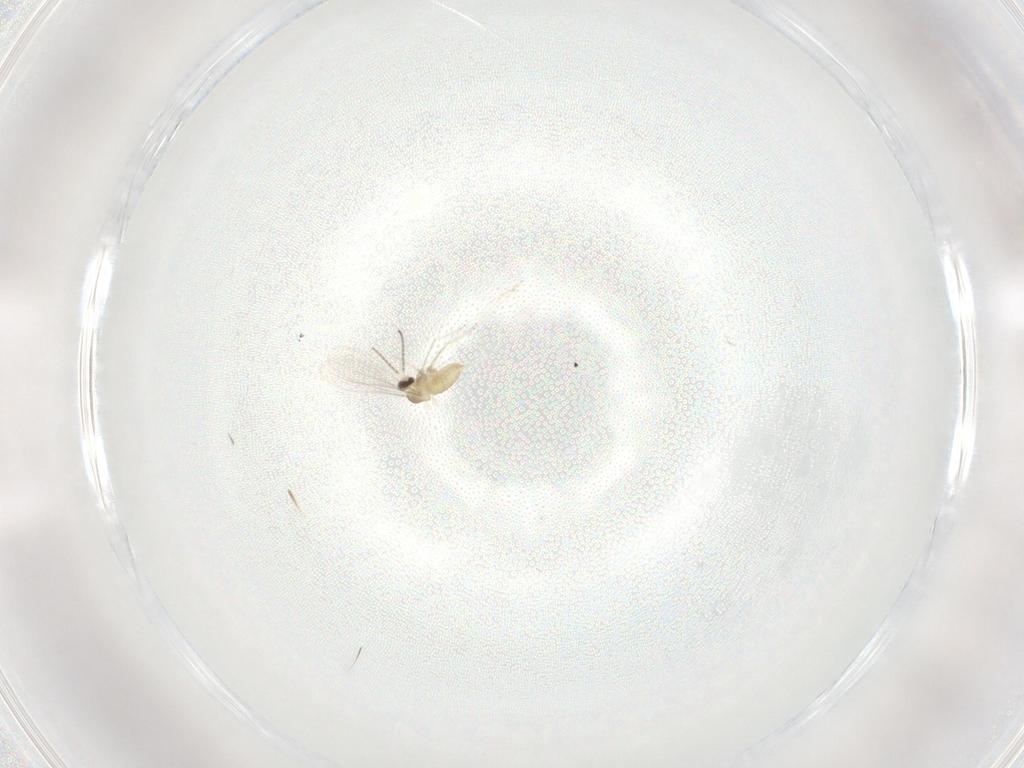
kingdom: Animalia
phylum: Arthropoda
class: Insecta
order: Diptera
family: Cecidomyiidae
